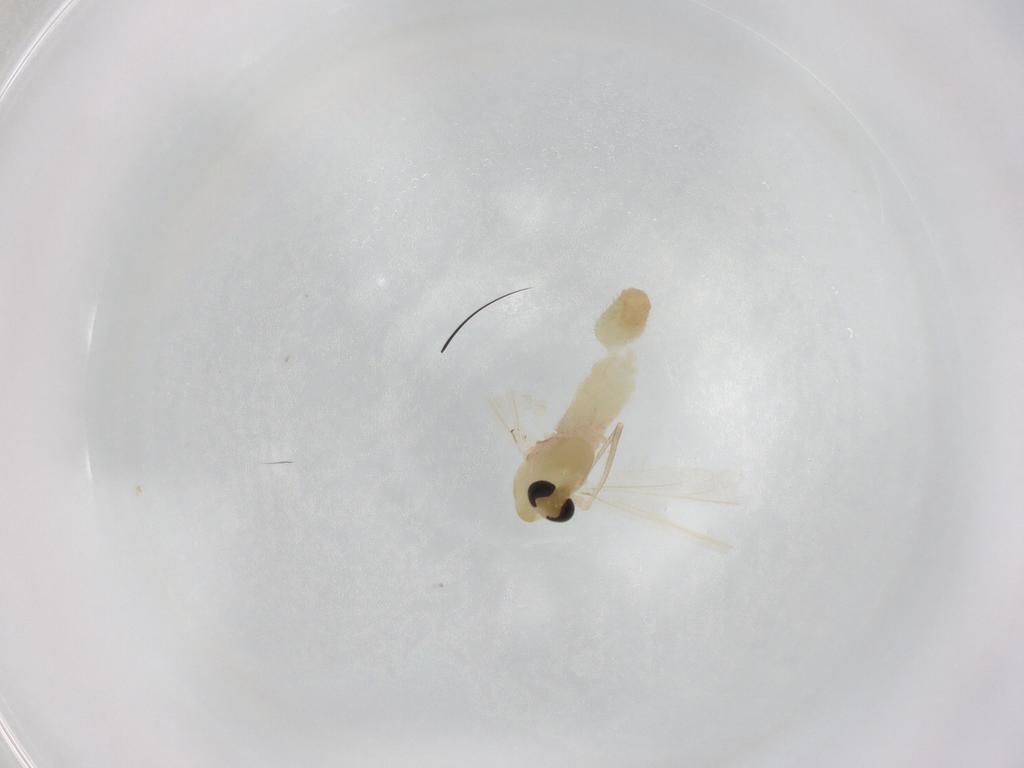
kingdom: Animalia
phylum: Arthropoda
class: Insecta
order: Diptera
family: Chironomidae
